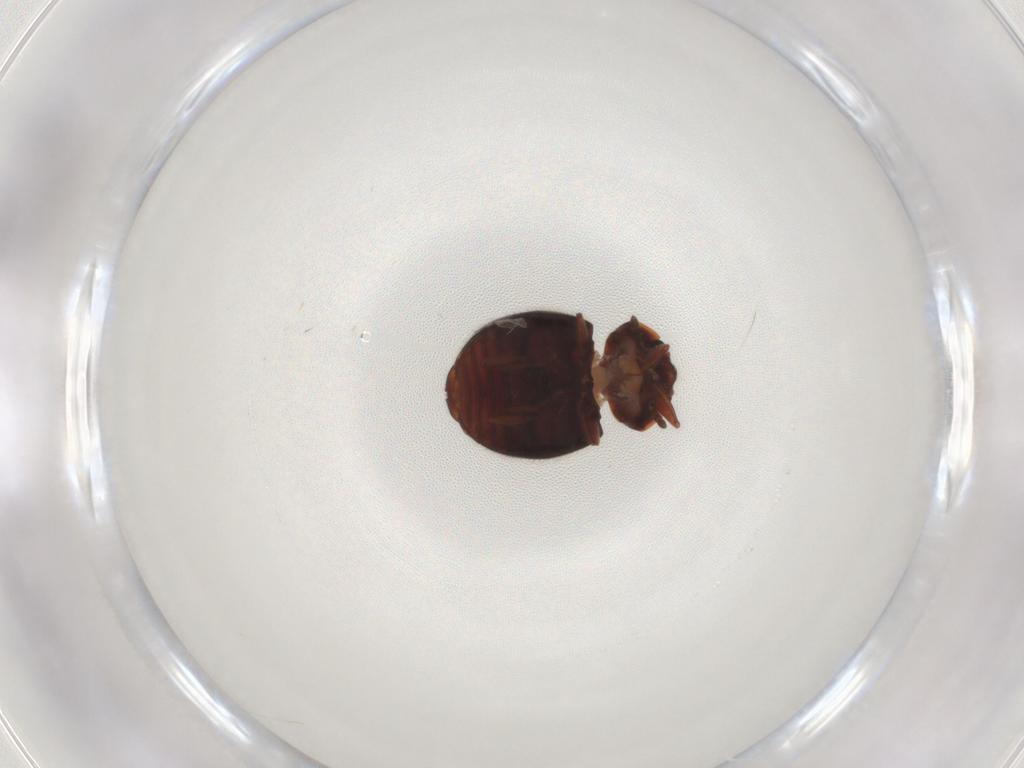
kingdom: Animalia
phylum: Arthropoda
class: Insecta
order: Coleoptera
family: Sphindidae
